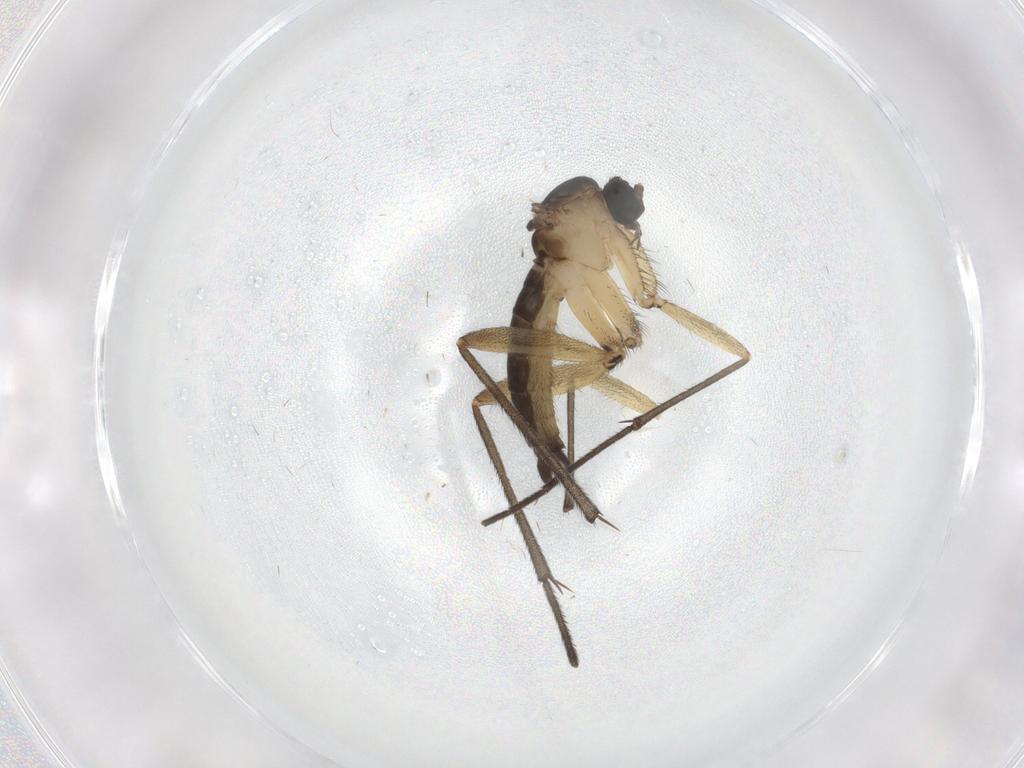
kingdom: Animalia
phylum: Arthropoda
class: Insecta
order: Diptera
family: Sciaridae
